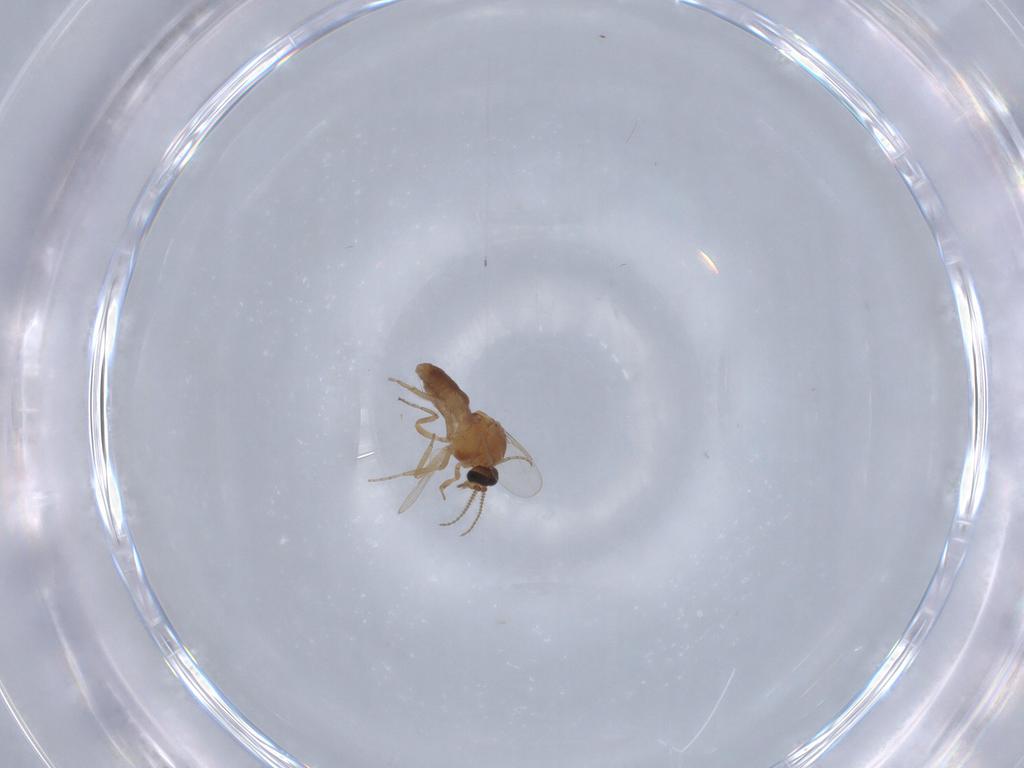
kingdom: Animalia
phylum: Arthropoda
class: Insecta
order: Diptera
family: Ceratopogonidae
